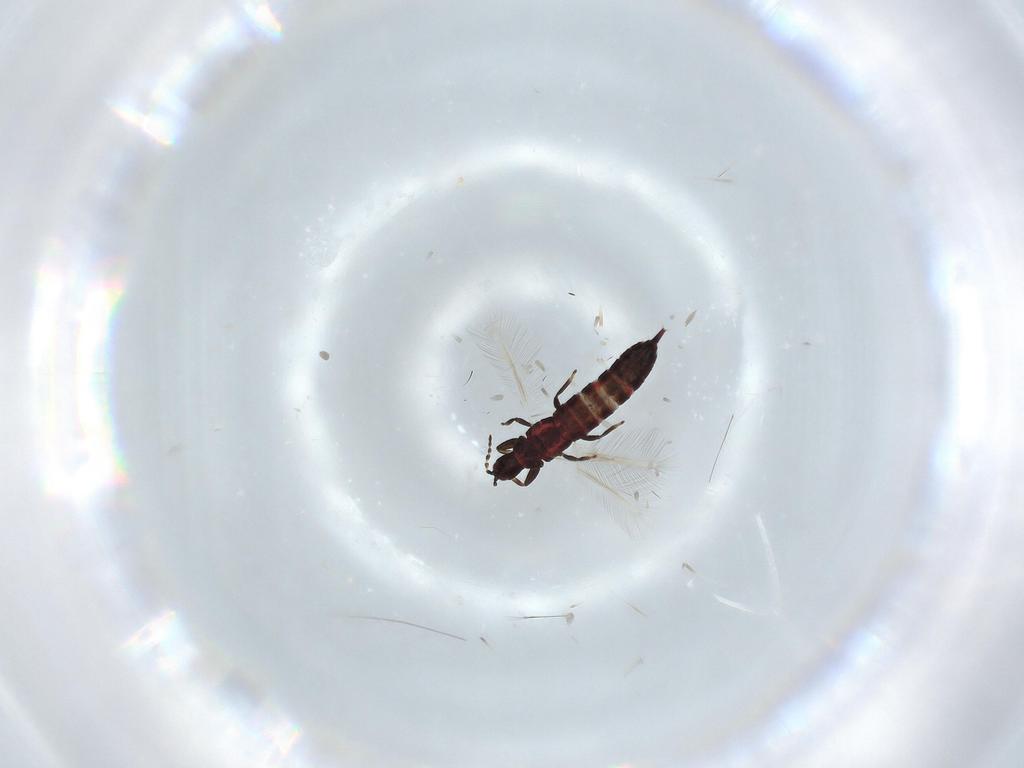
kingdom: Animalia
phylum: Arthropoda
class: Insecta
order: Thysanoptera
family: Phlaeothripidae
